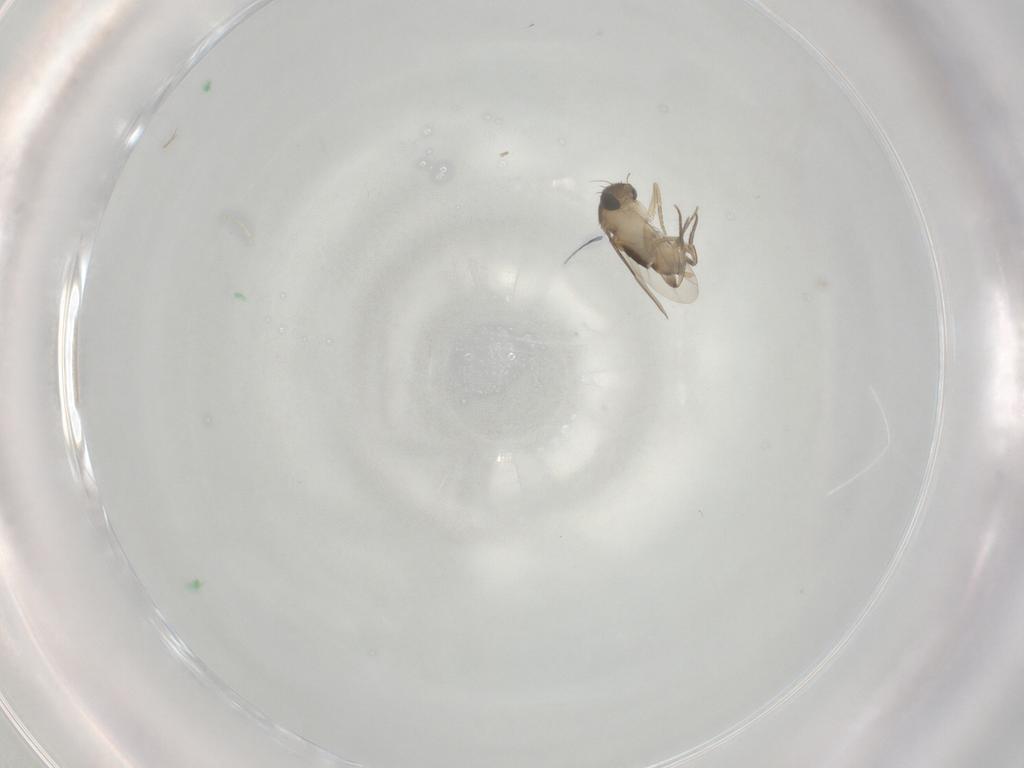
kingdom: Animalia
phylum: Arthropoda
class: Insecta
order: Diptera
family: Phoridae
